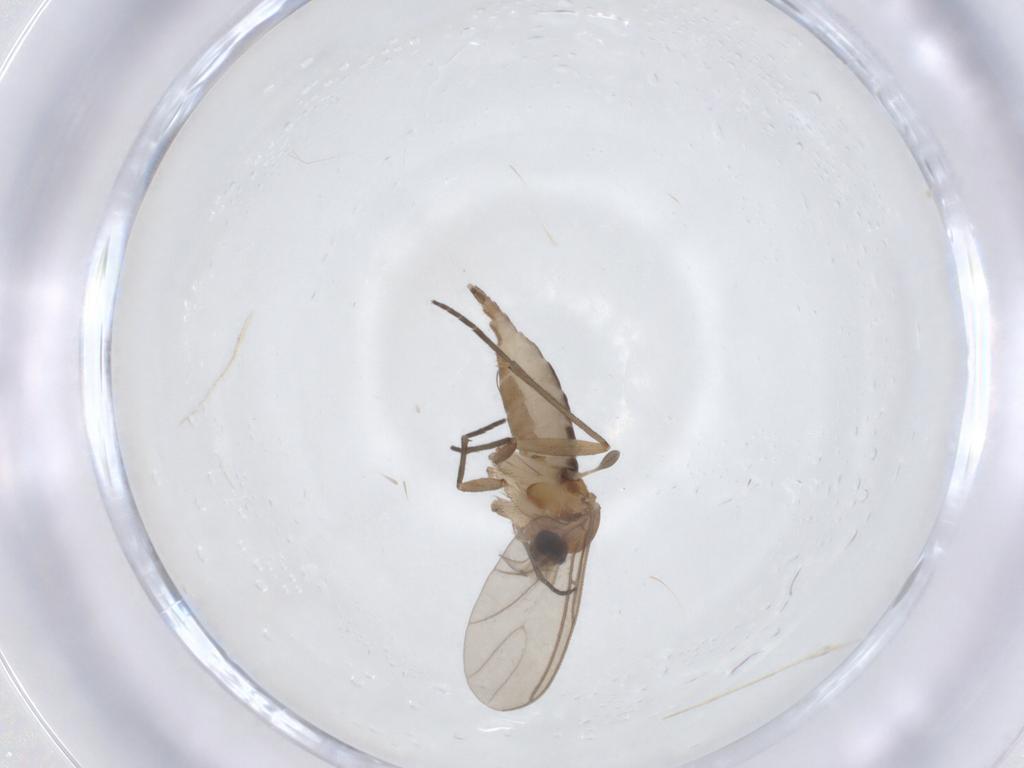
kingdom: Animalia
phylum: Arthropoda
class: Insecta
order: Diptera
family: Sciaridae
